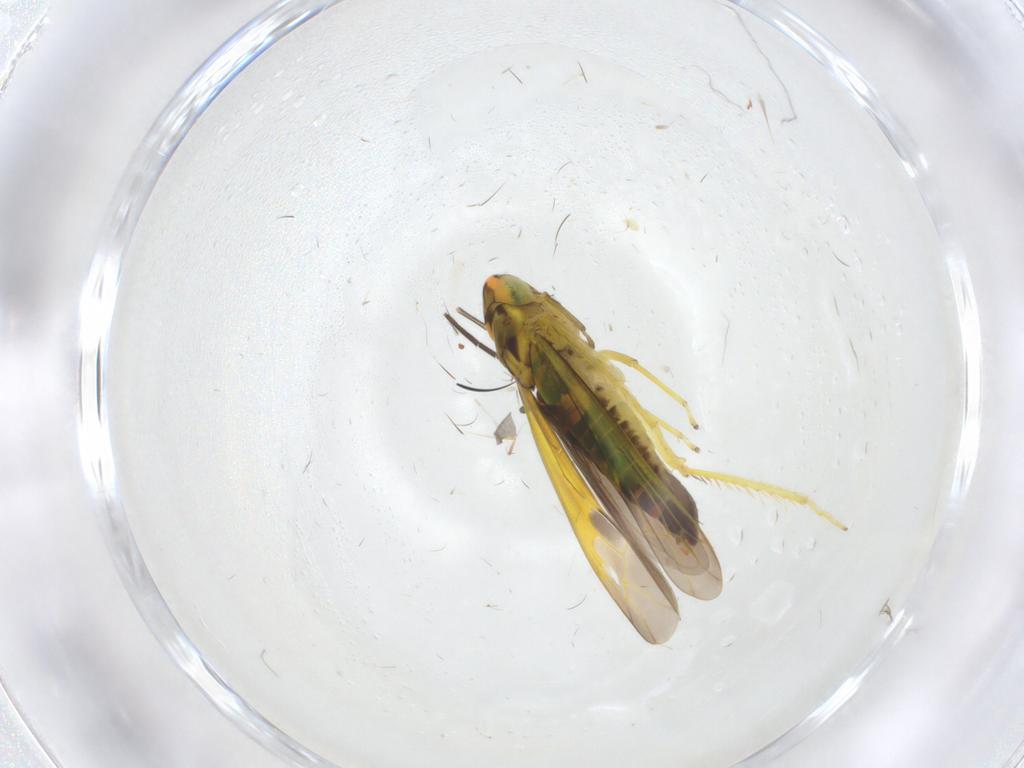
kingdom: Animalia
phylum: Arthropoda
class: Insecta
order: Hemiptera
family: Cicadellidae
